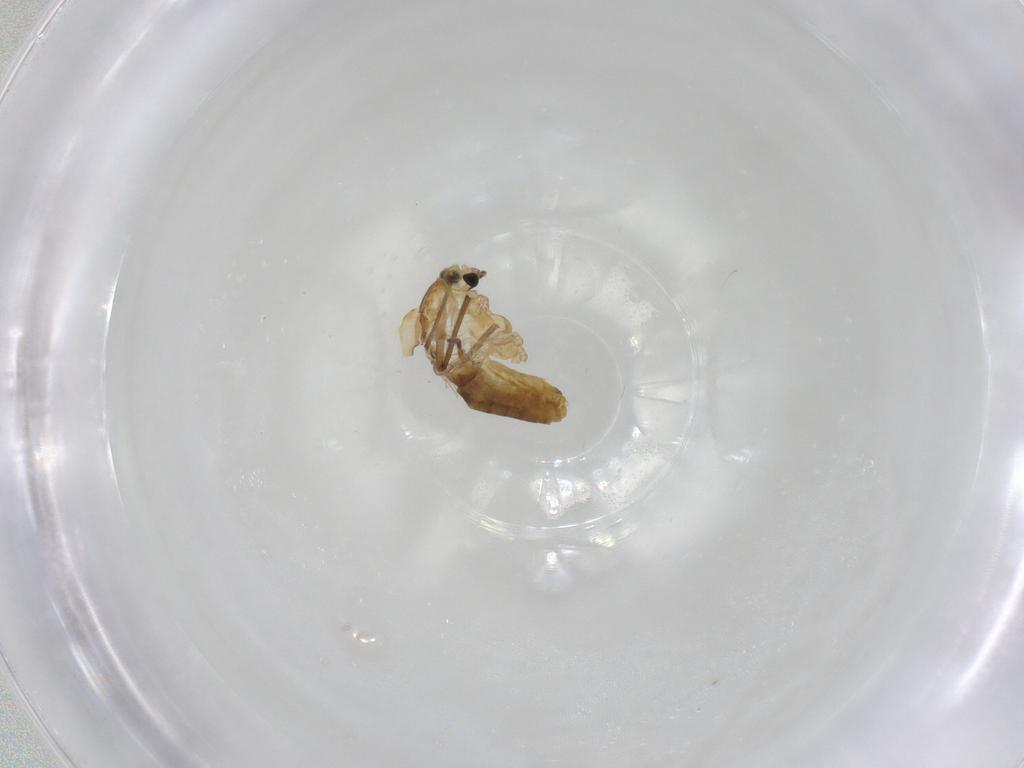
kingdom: Animalia
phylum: Arthropoda
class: Insecta
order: Diptera
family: Chironomidae
